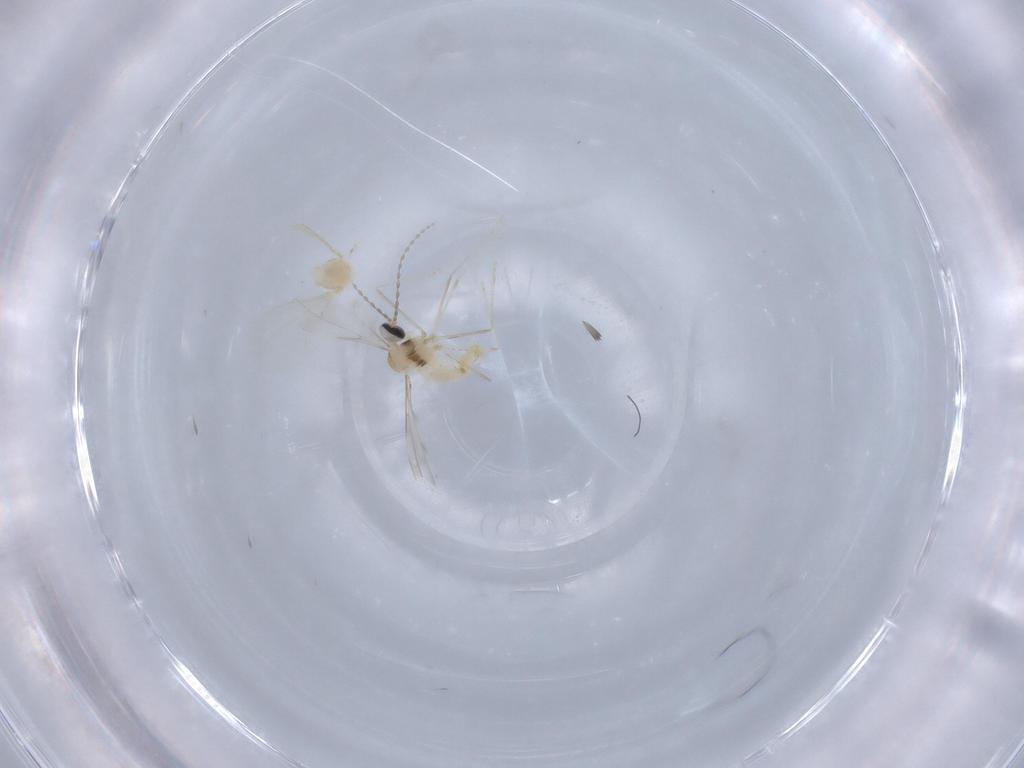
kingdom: Animalia
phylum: Arthropoda
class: Insecta
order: Diptera
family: Cecidomyiidae
